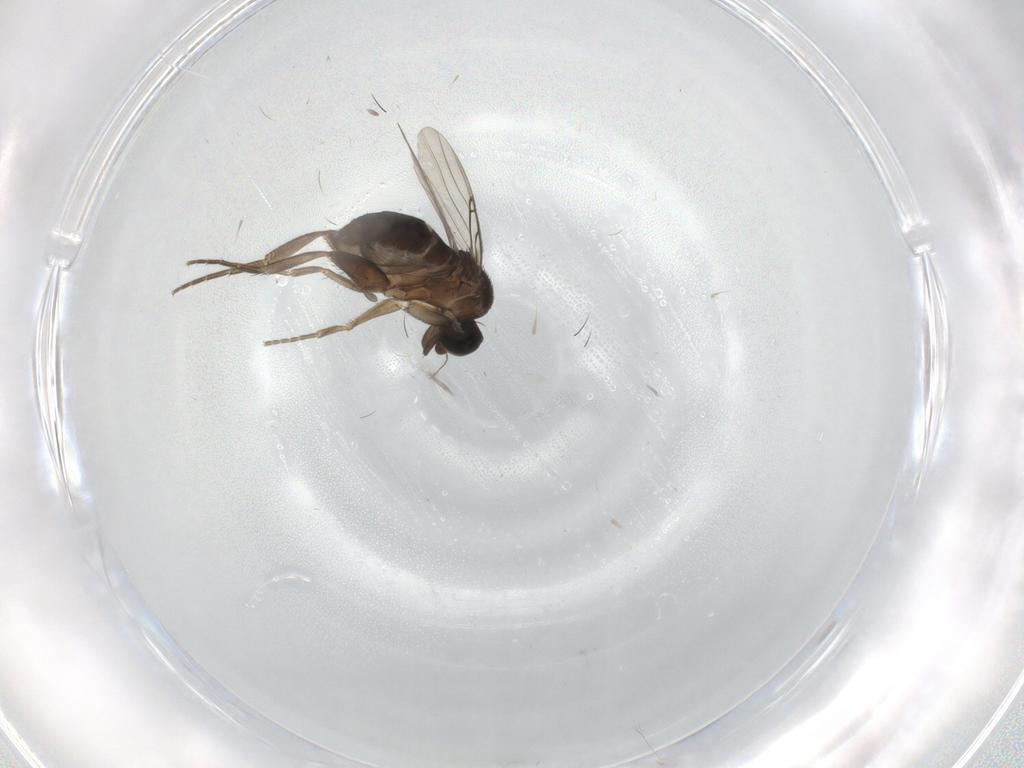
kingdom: Animalia
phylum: Arthropoda
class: Insecta
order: Diptera
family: Phoridae
